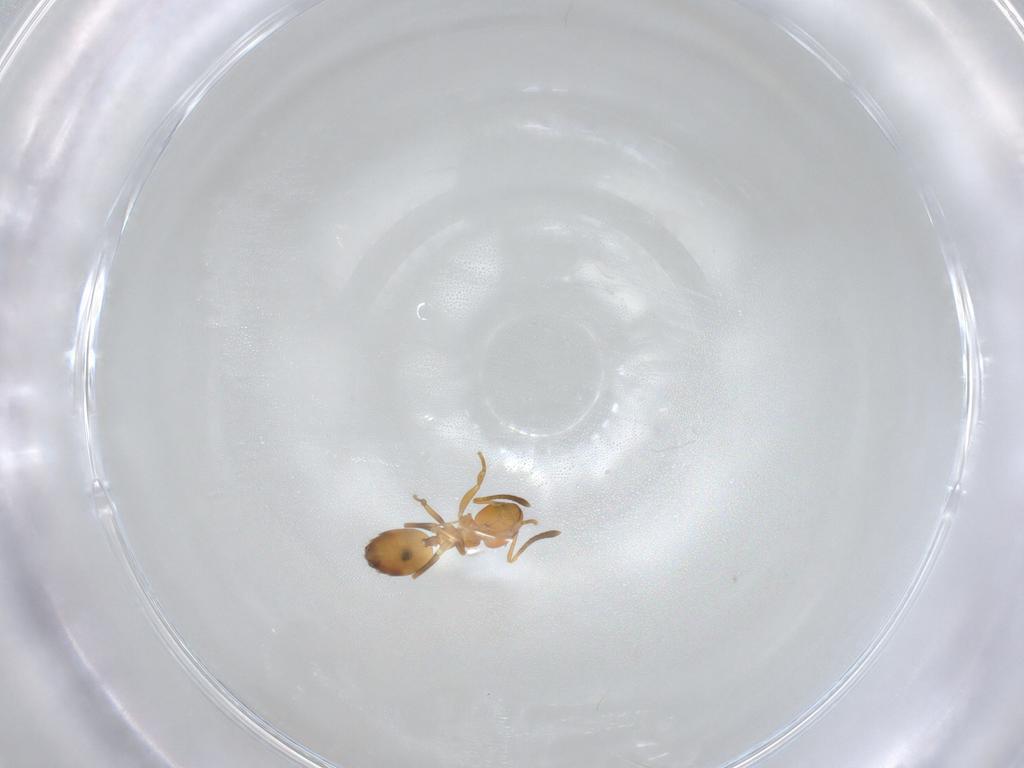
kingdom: Animalia
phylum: Arthropoda
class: Insecta
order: Hymenoptera
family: Formicidae
